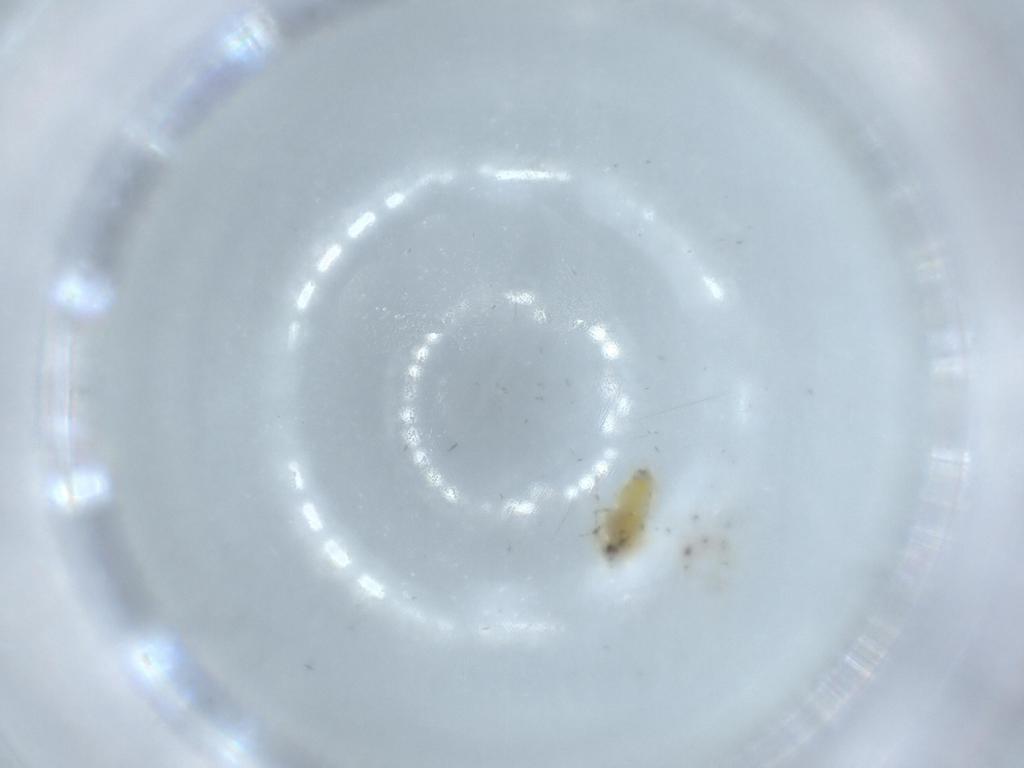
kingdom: Animalia
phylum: Arthropoda
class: Insecta
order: Hemiptera
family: Aleyrodidae
